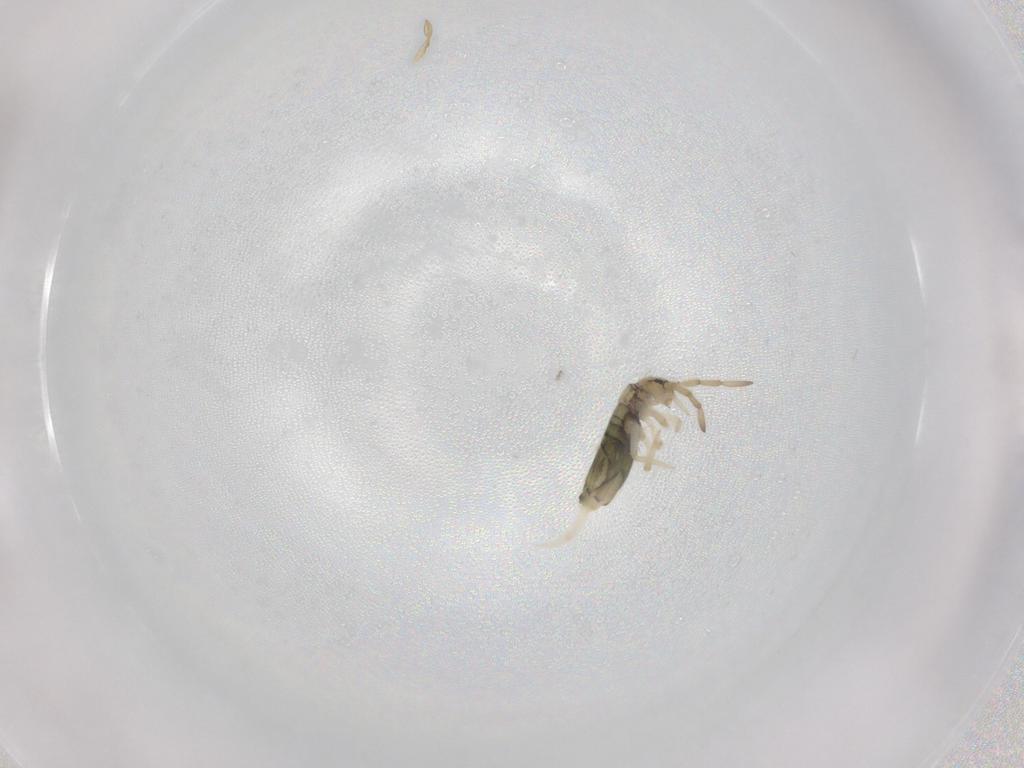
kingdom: Animalia
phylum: Arthropoda
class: Collembola
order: Entomobryomorpha
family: Entomobryidae
